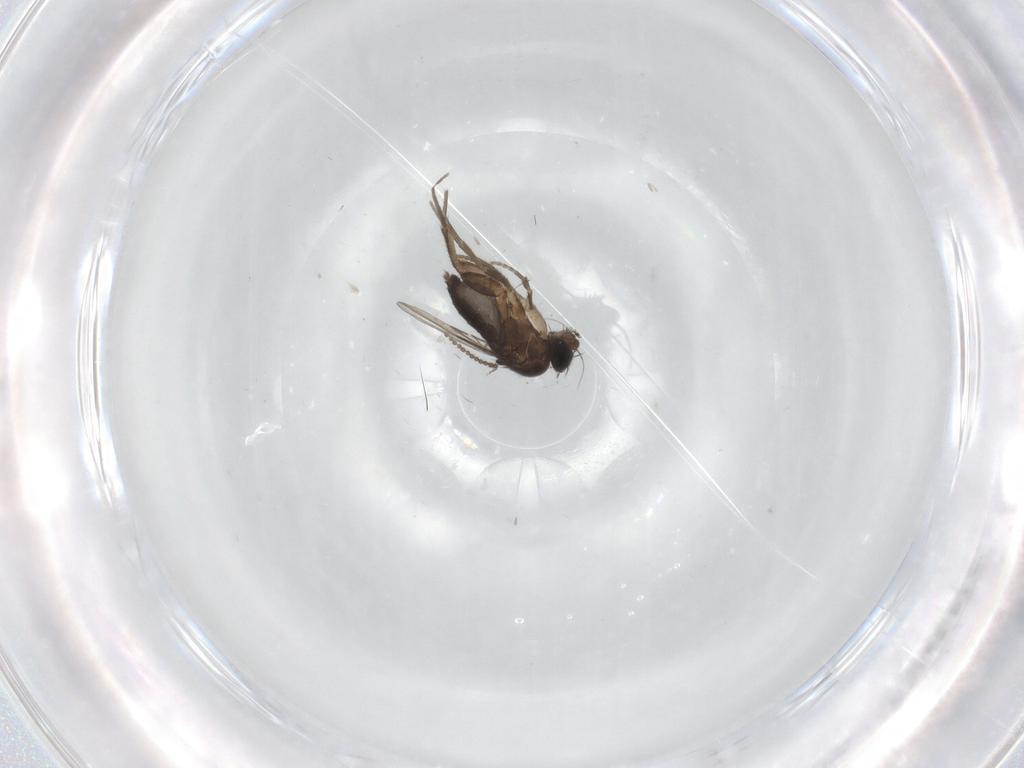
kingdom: Animalia
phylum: Arthropoda
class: Insecta
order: Diptera
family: Phoridae
